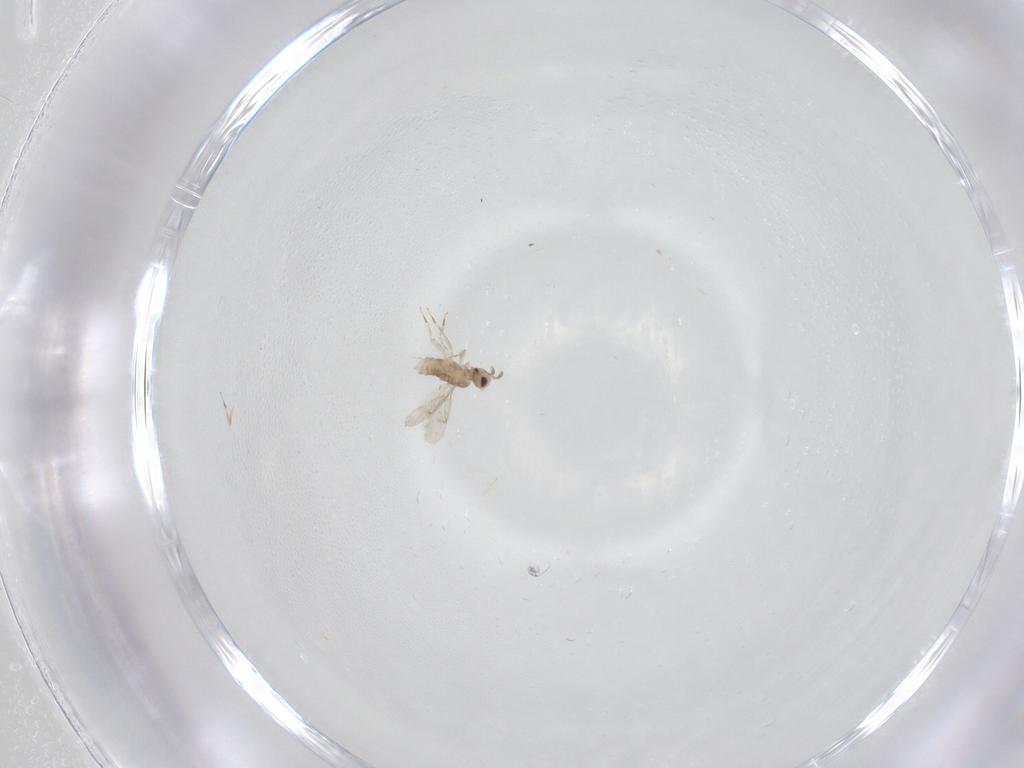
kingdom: Animalia
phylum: Arthropoda
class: Insecta
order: Hymenoptera
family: Aphelinidae
